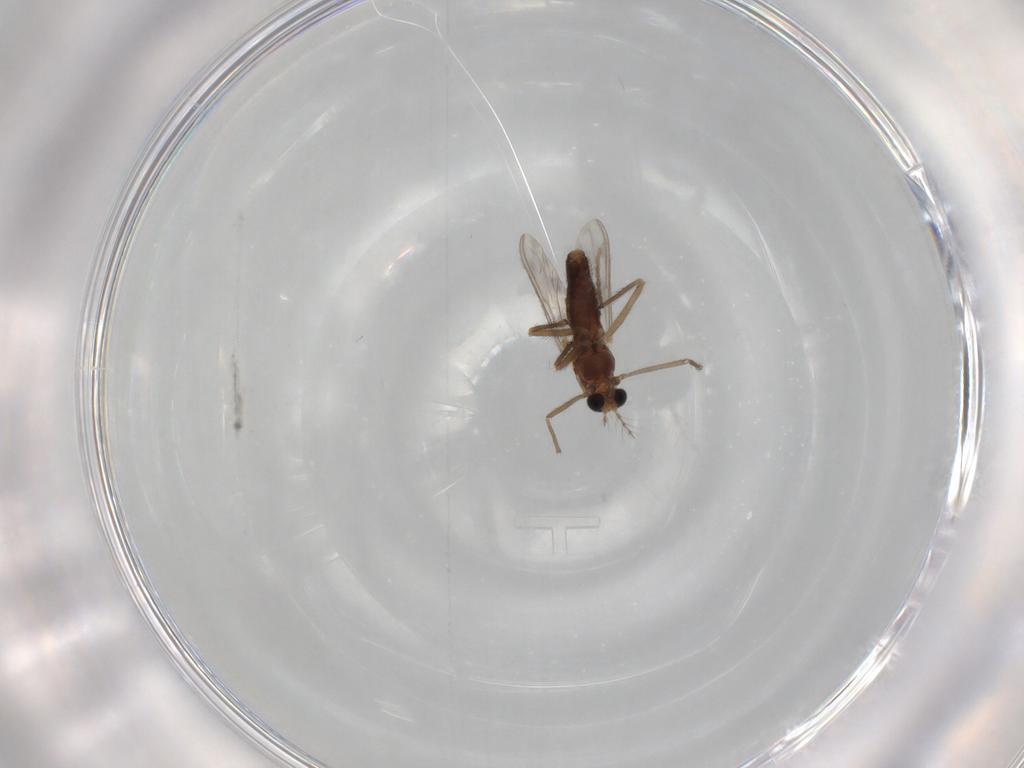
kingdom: Animalia
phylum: Arthropoda
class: Insecta
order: Diptera
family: Chironomidae
